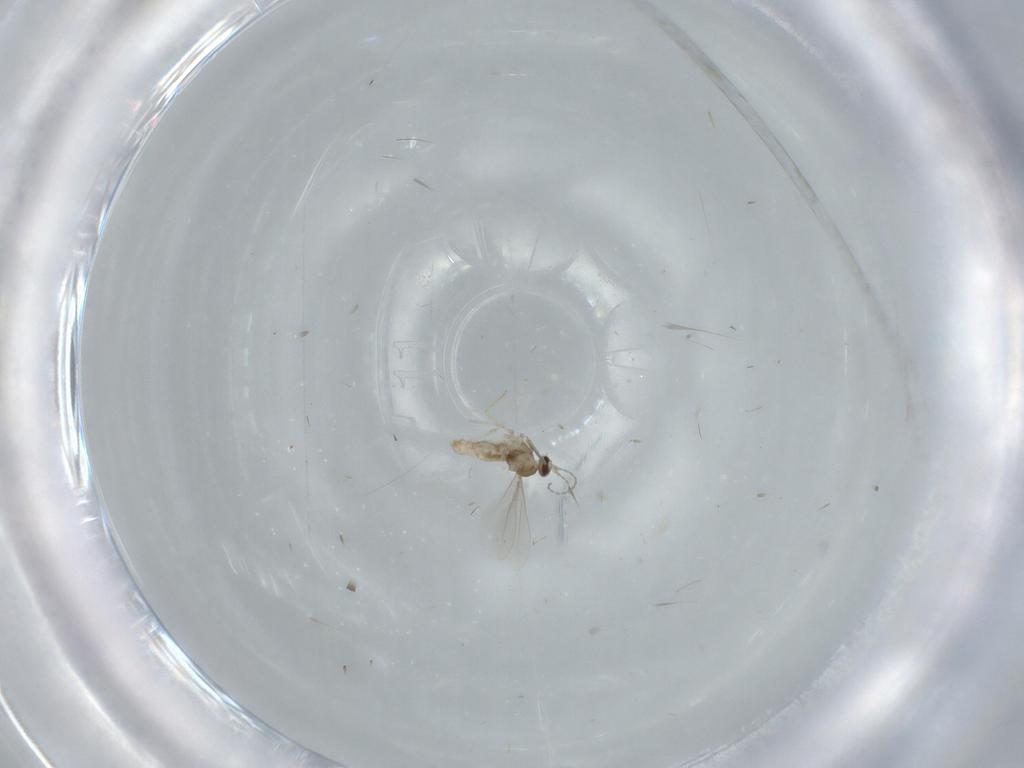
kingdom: Animalia
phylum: Arthropoda
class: Insecta
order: Diptera
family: Cecidomyiidae
